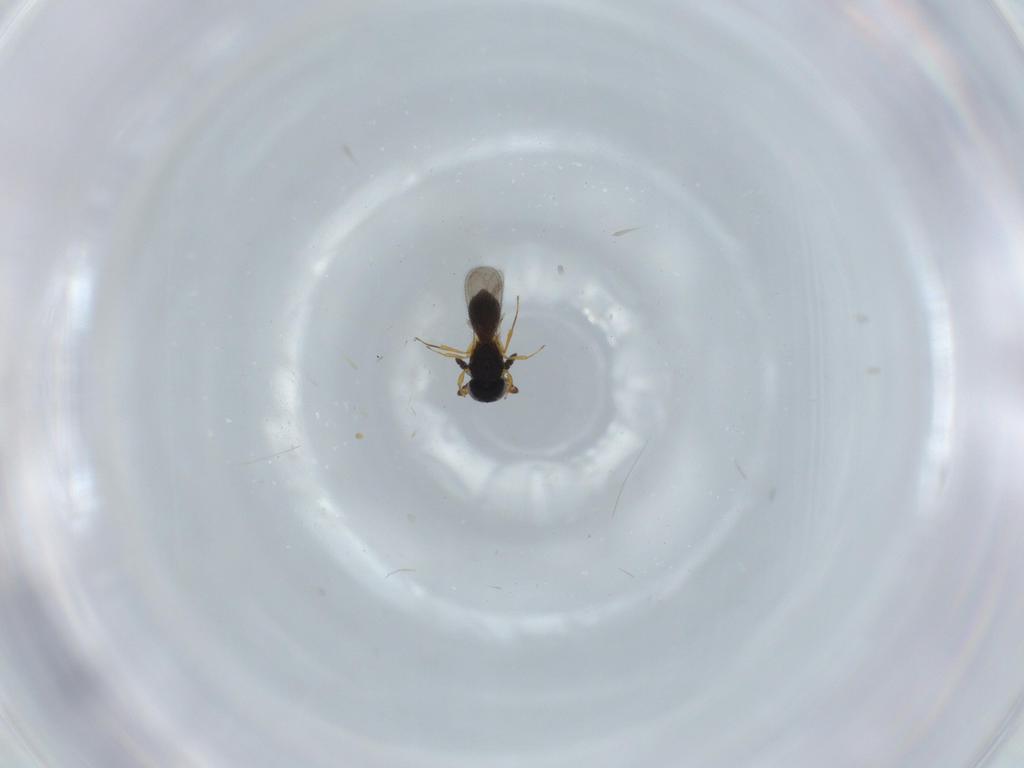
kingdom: Animalia
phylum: Arthropoda
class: Insecta
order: Hymenoptera
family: Scelionidae
